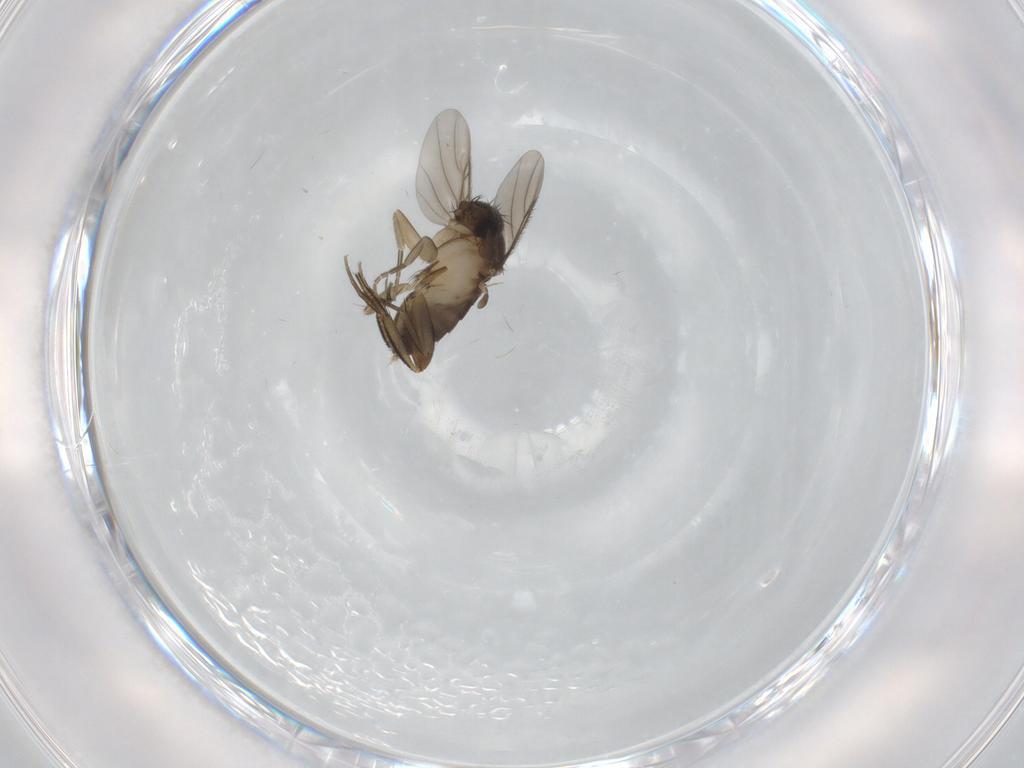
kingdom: Animalia
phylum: Arthropoda
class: Insecta
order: Diptera
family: Phoridae
